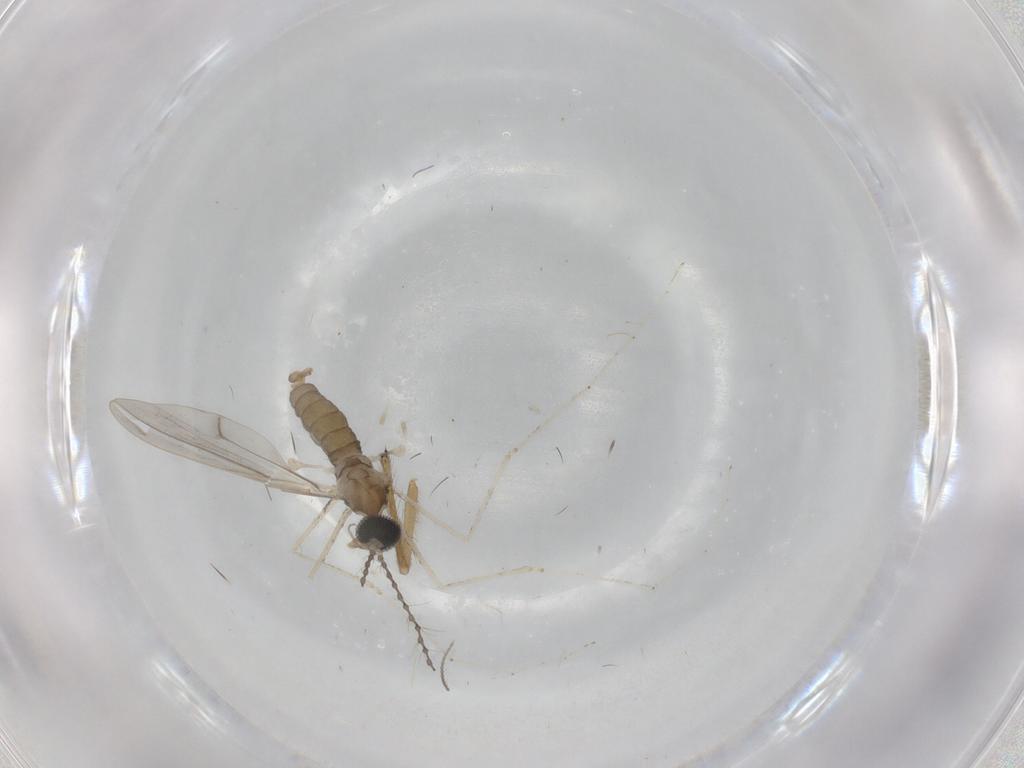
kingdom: Animalia
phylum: Arthropoda
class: Insecta
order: Diptera
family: Cecidomyiidae
